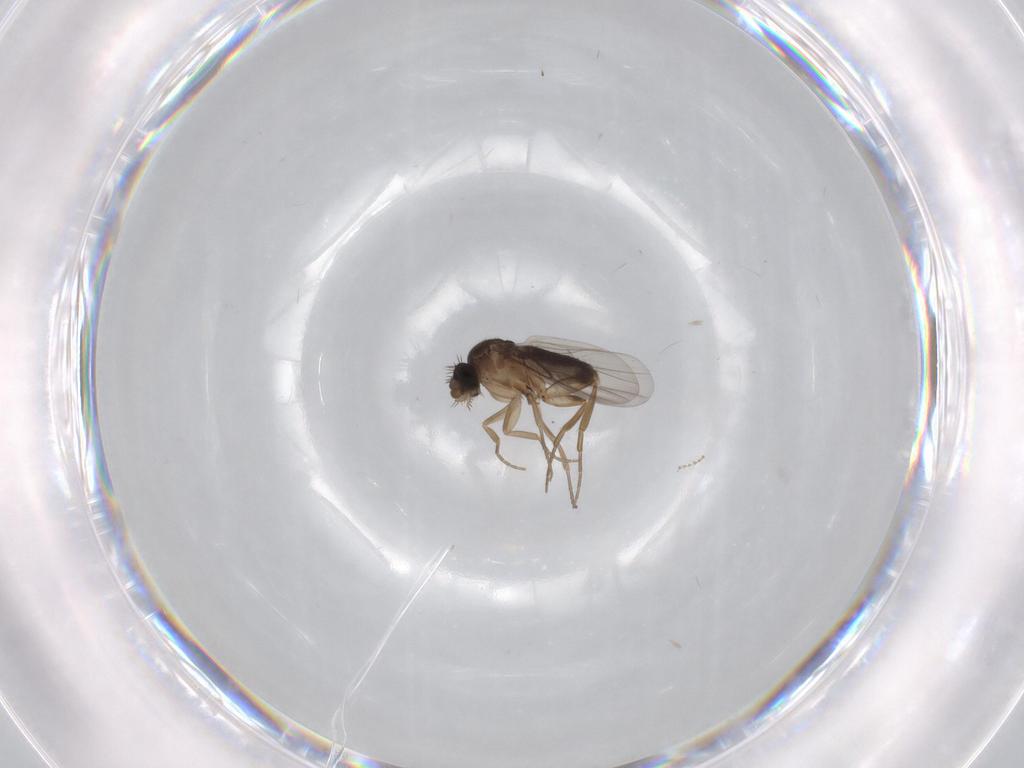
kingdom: Animalia
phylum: Arthropoda
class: Insecta
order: Diptera
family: Phoridae
